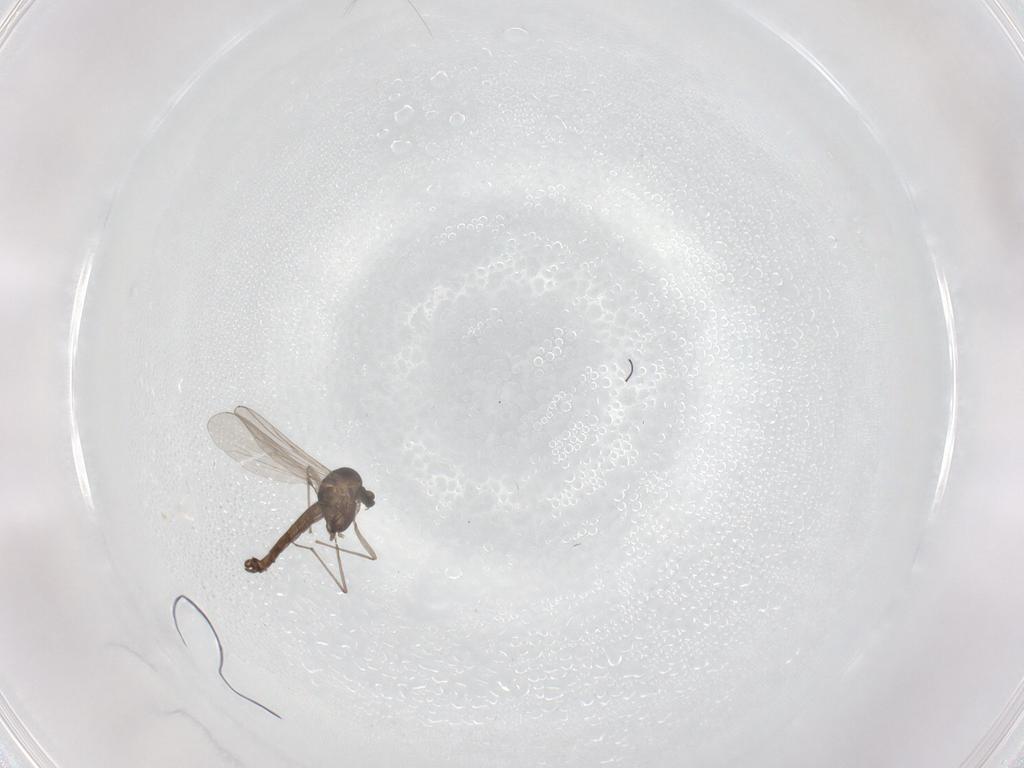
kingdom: Animalia
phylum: Arthropoda
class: Insecta
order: Diptera
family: Chironomidae
